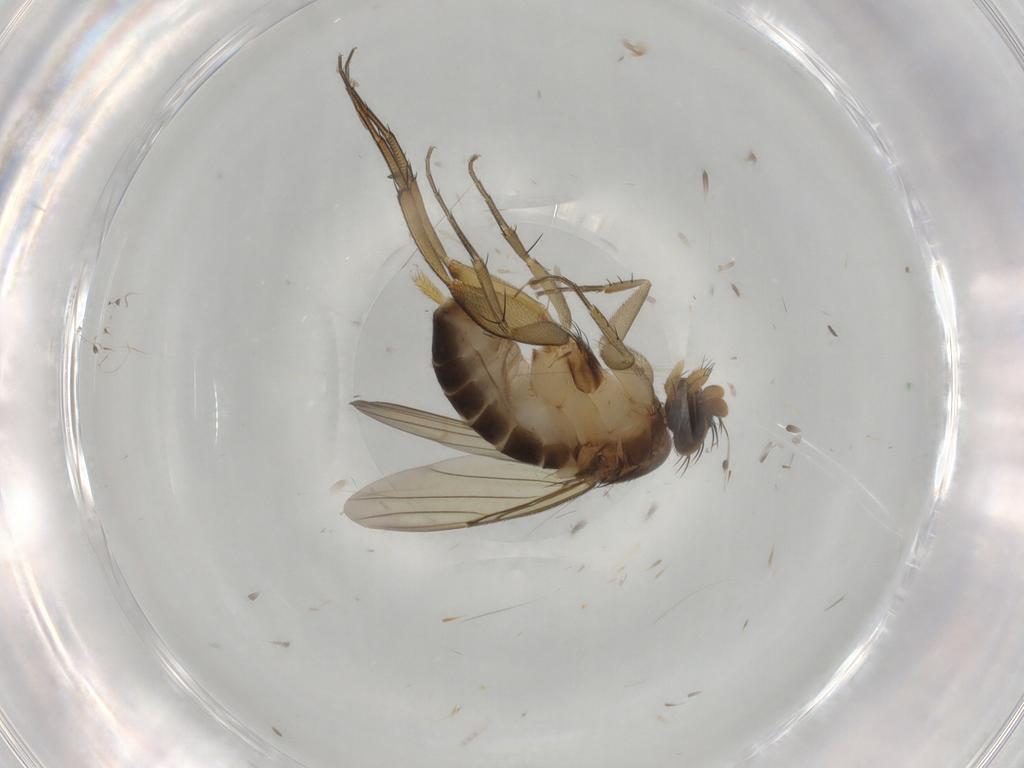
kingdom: Animalia
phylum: Arthropoda
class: Insecta
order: Diptera
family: Phoridae
